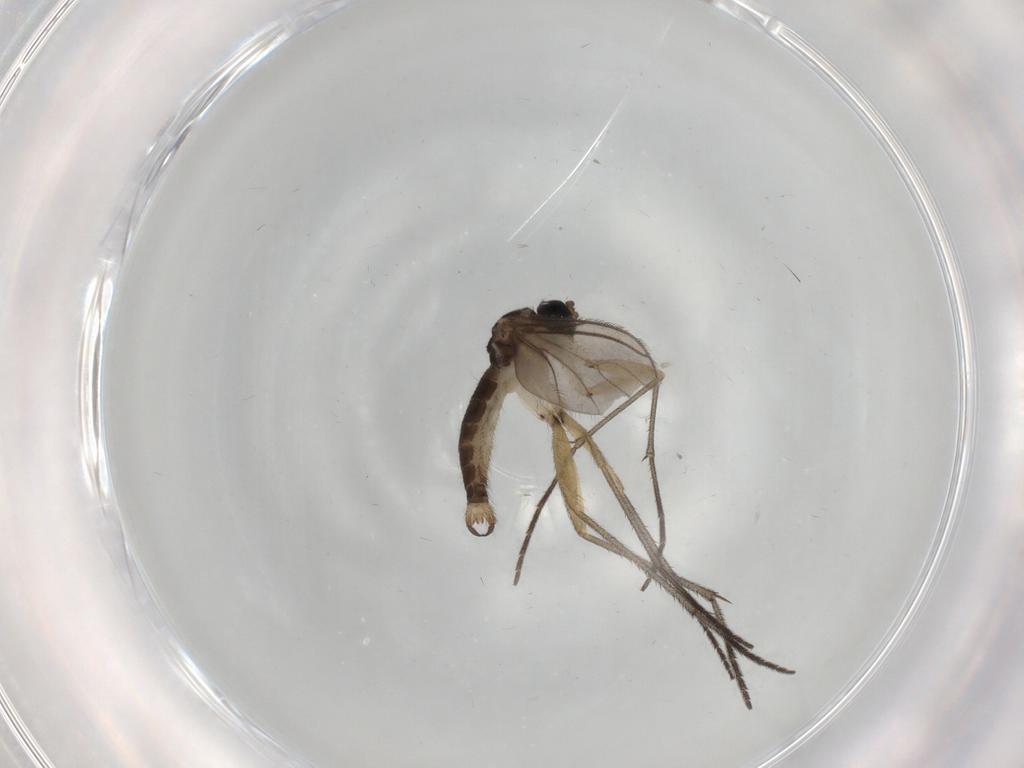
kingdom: Animalia
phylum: Arthropoda
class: Insecta
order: Diptera
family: Sciaridae
